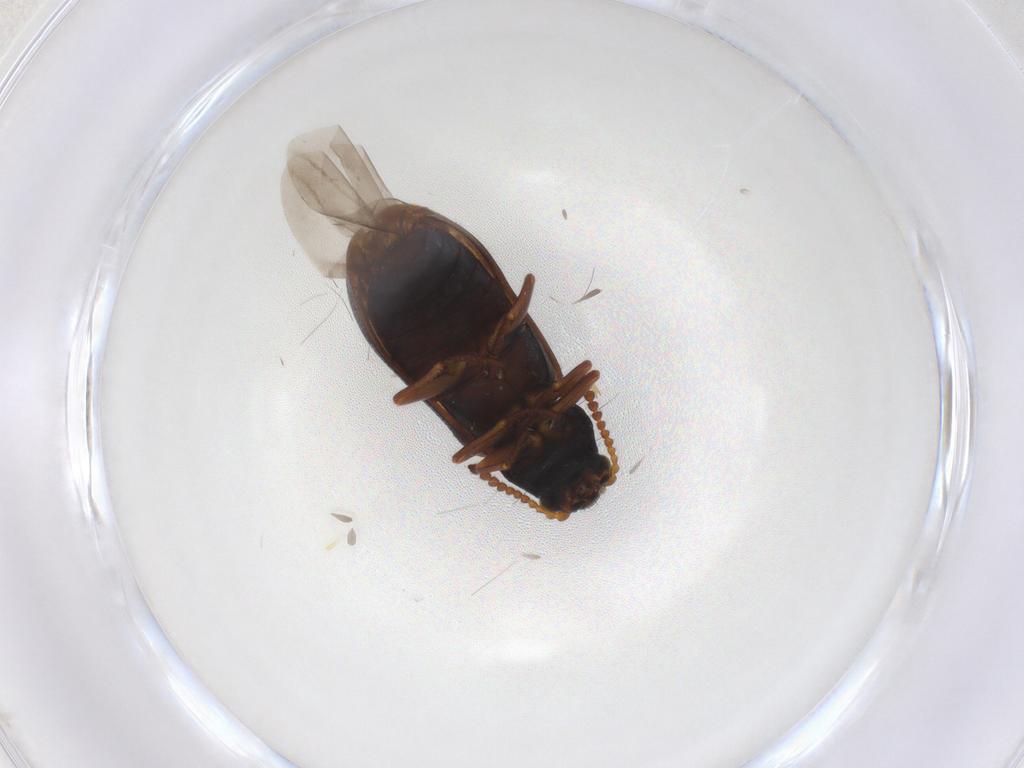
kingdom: Animalia
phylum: Arthropoda
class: Insecta
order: Coleoptera
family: Melyridae
